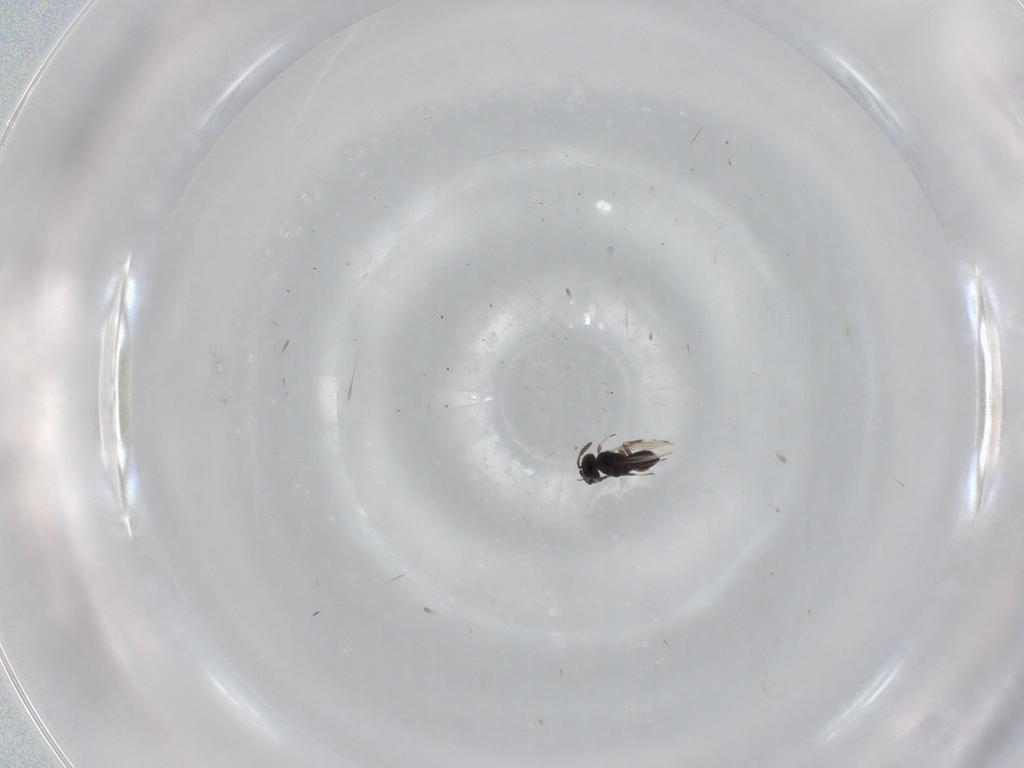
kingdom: Animalia
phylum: Arthropoda
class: Insecta
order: Hymenoptera
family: Scelionidae
